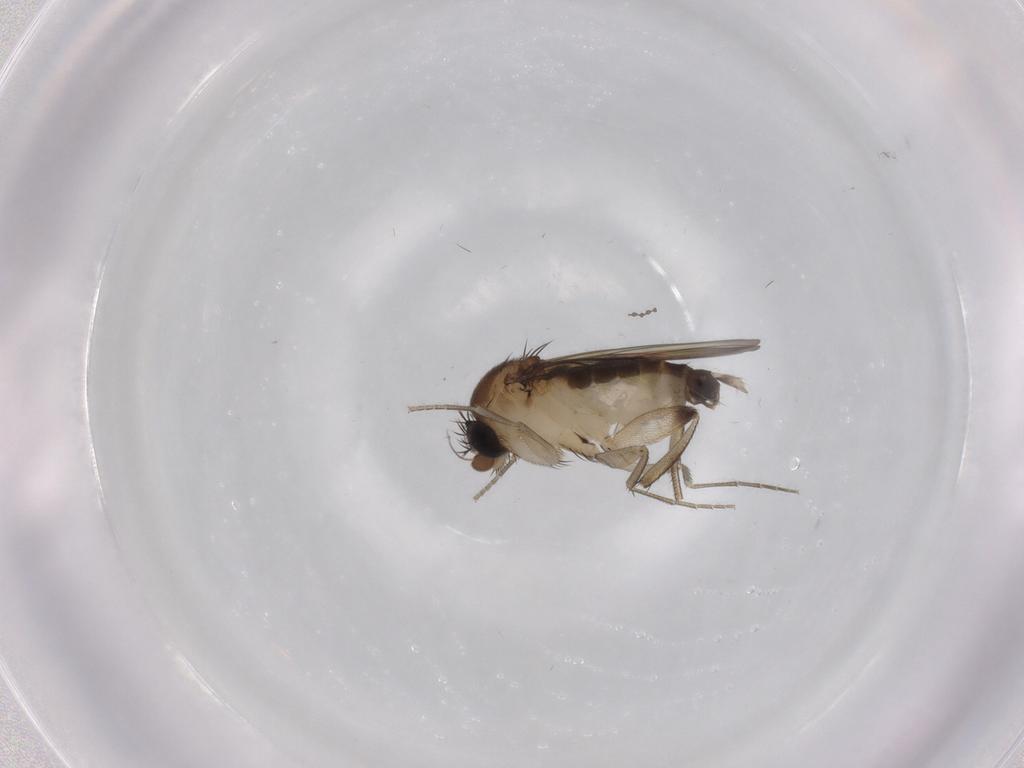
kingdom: Animalia
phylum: Arthropoda
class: Insecta
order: Diptera
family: Phoridae
